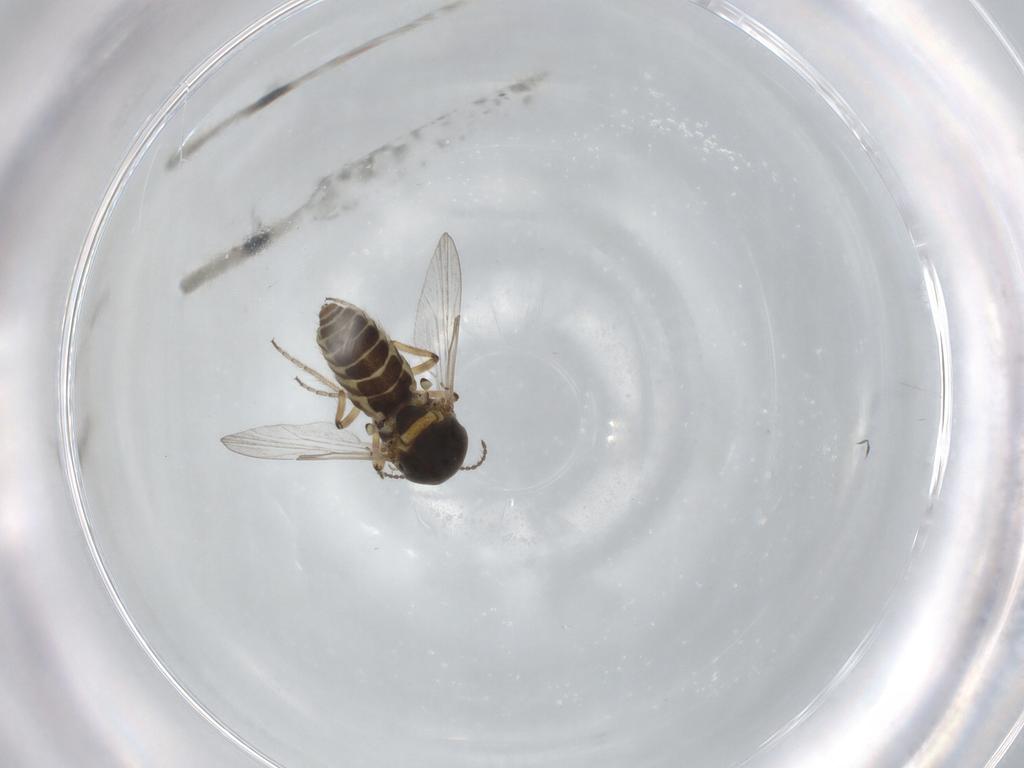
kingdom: Animalia
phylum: Arthropoda
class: Insecta
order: Diptera
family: Ceratopogonidae
